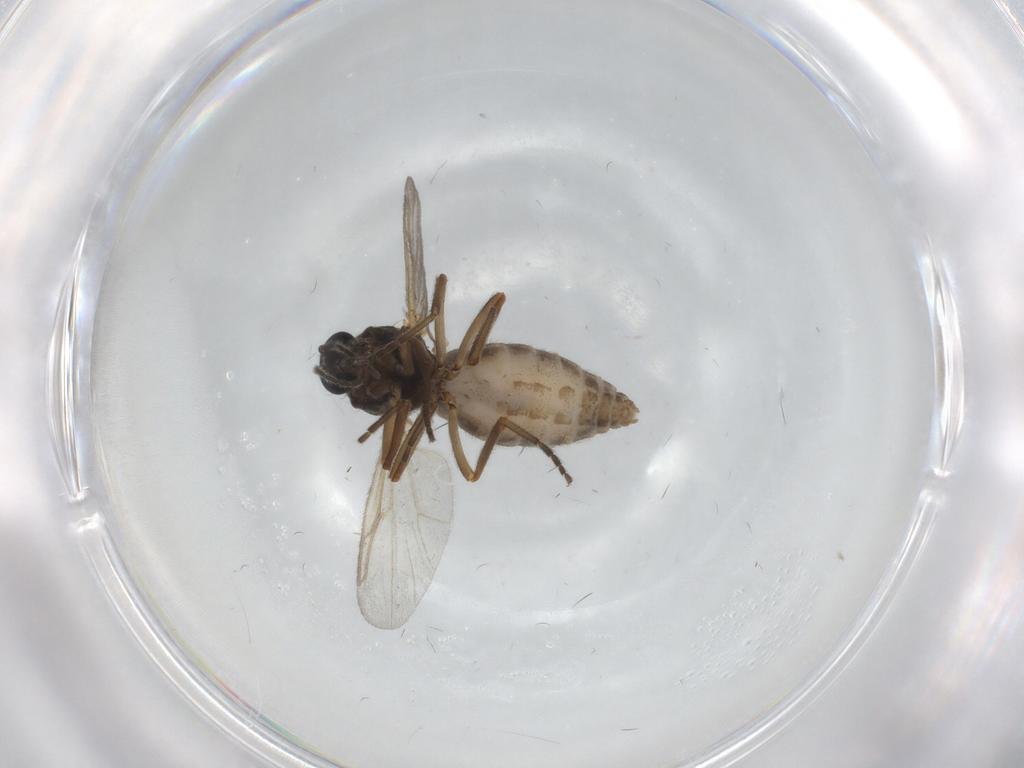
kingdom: Animalia
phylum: Arthropoda
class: Insecta
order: Diptera
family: Ceratopogonidae
